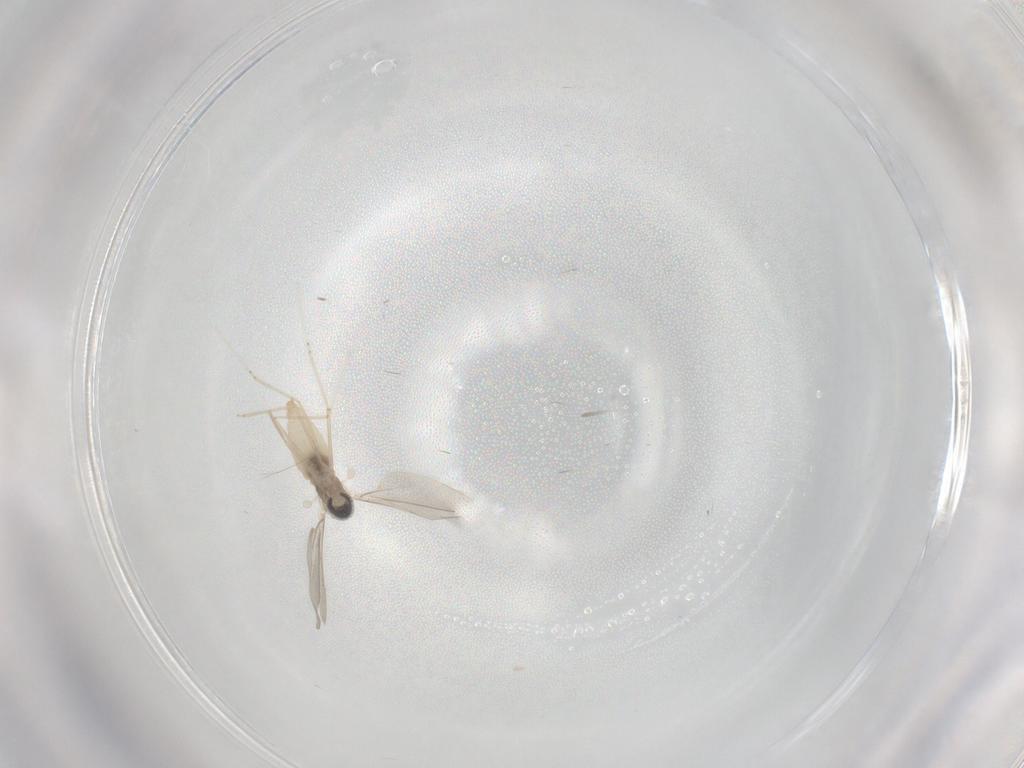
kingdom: Animalia
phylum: Arthropoda
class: Insecta
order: Diptera
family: Cecidomyiidae
